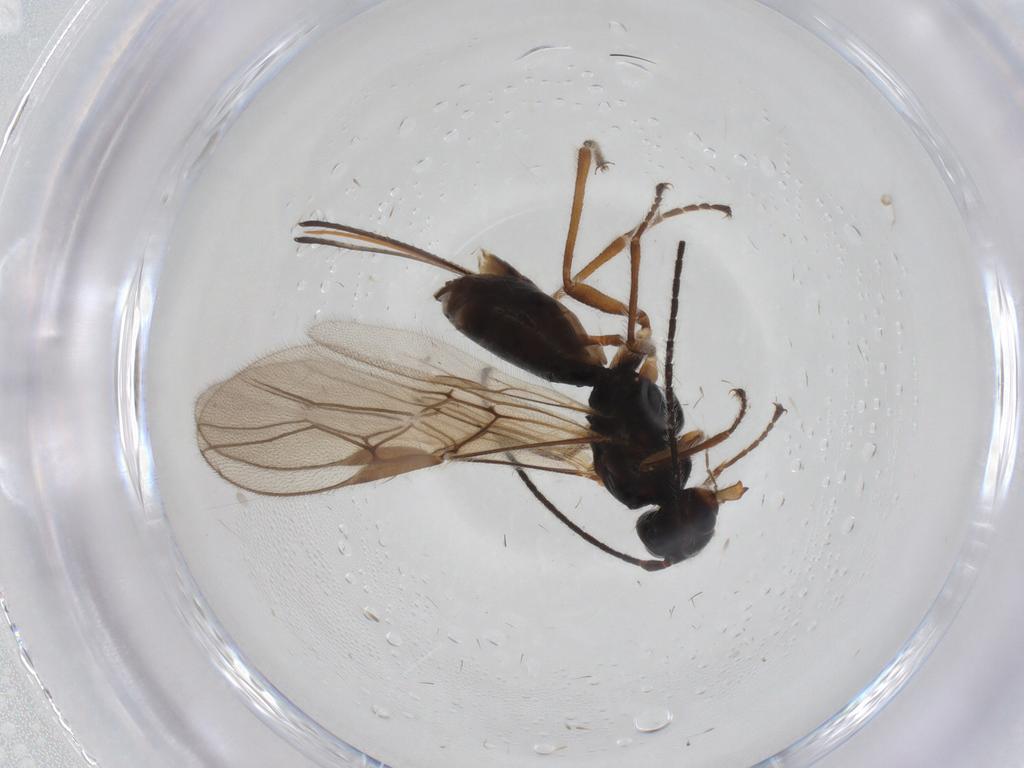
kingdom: Animalia
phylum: Arthropoda
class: Insecta
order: Hymenoptera
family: Braconidae
